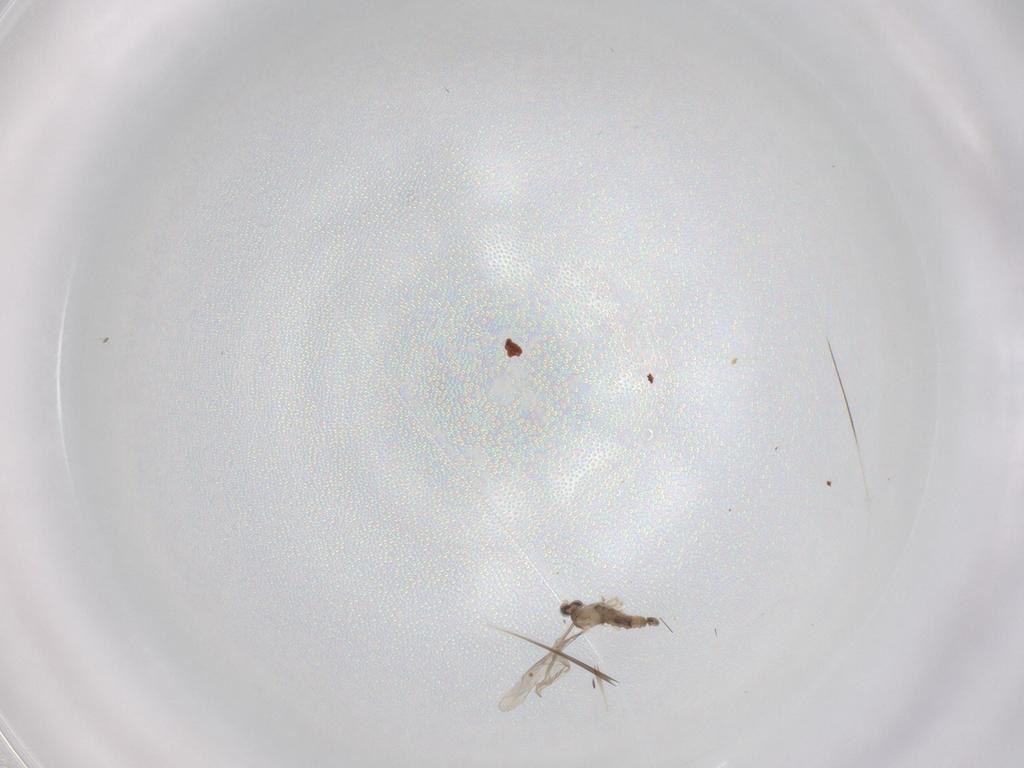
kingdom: Animalia
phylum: Arthropoda
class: Insecta
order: Diptera
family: Cecidomyiidae
